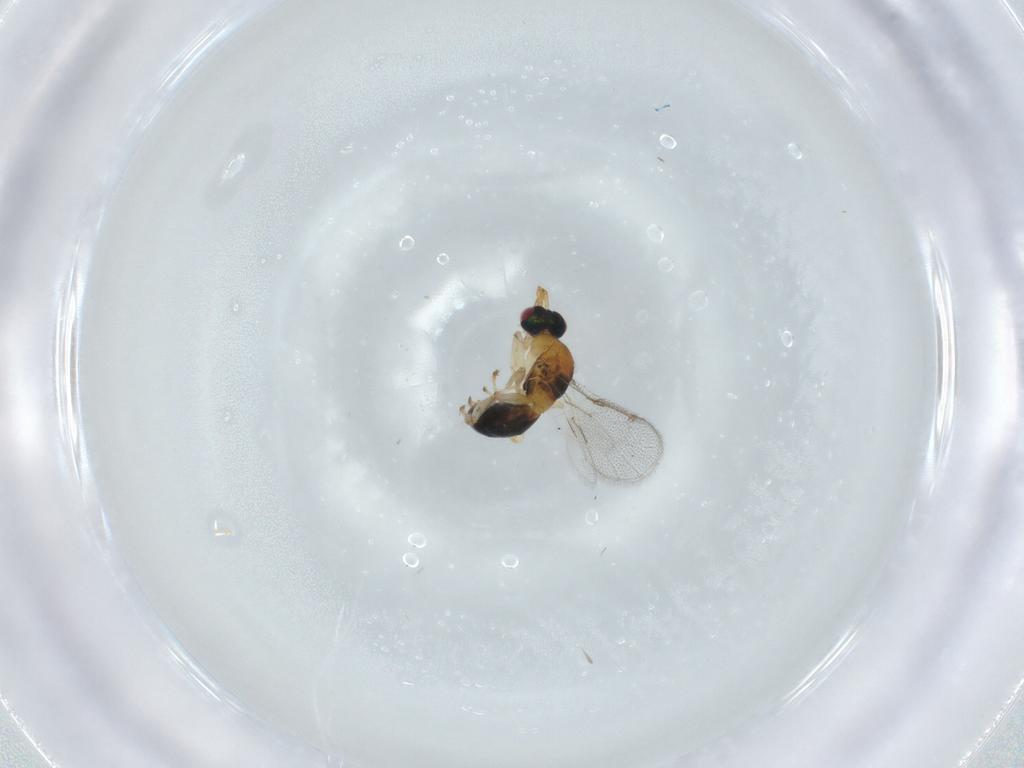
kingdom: Animalia
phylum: Arthropoda
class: Insecta
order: Hymenoptera
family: Torymidae
